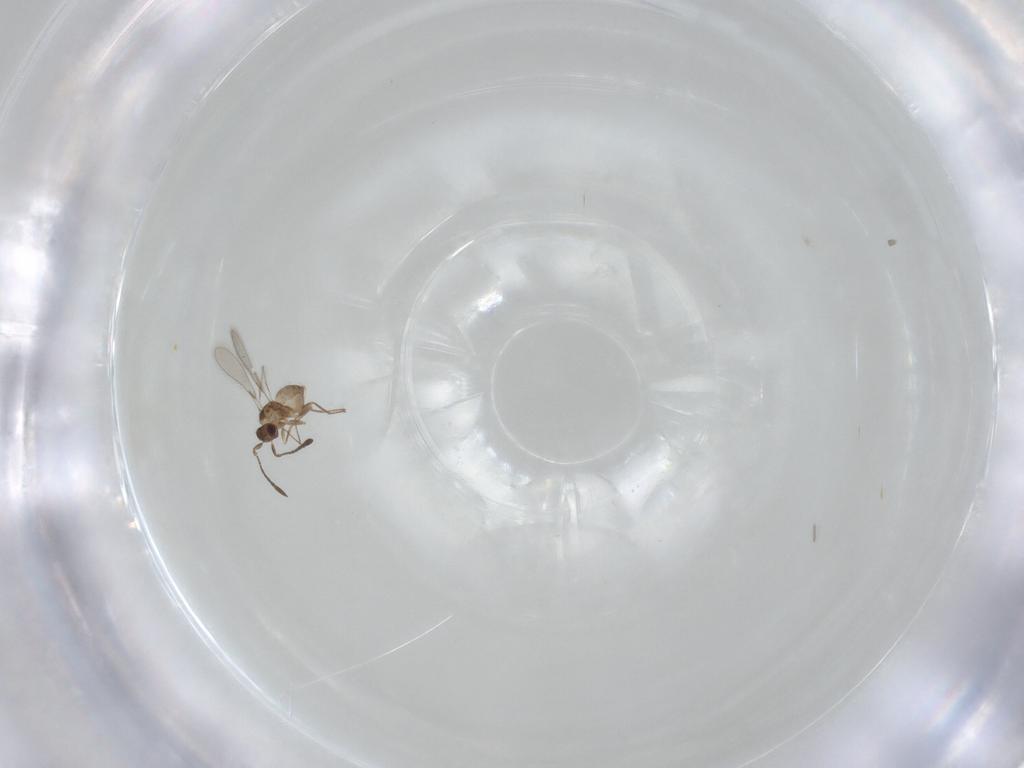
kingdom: Animalia
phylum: Arthropoda
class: Insecta
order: Hymenoptera
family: Mymaridae
